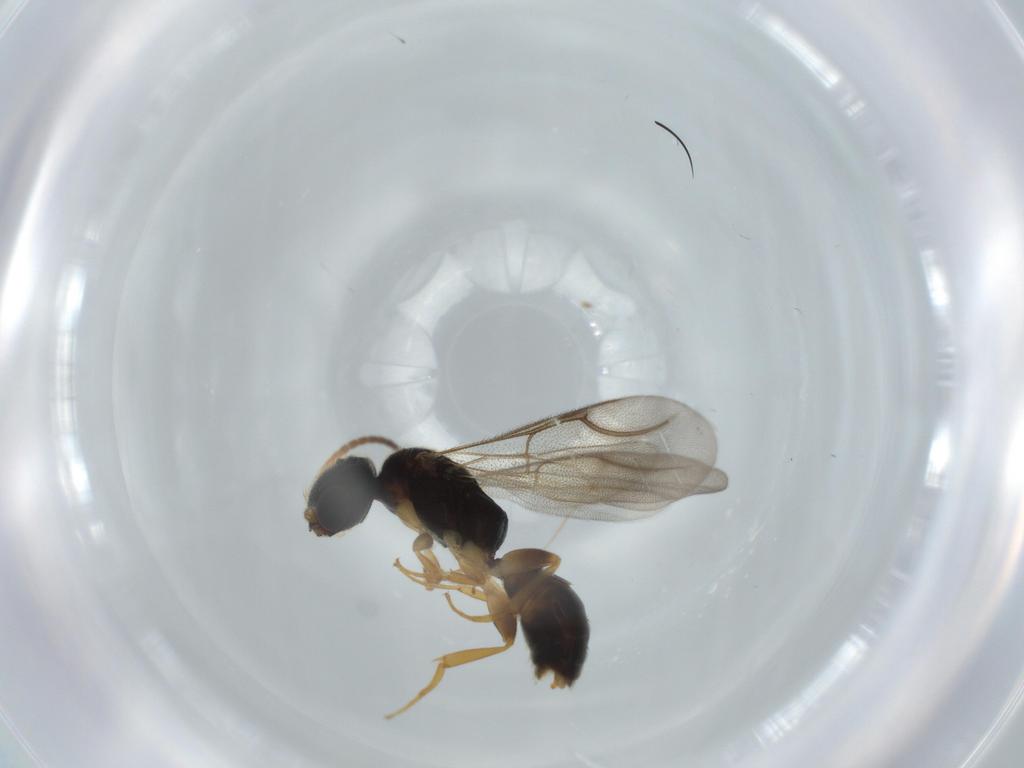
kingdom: Animalia
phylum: Arthropoda
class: Insecta
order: Hymenoptera
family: Bethylidae
